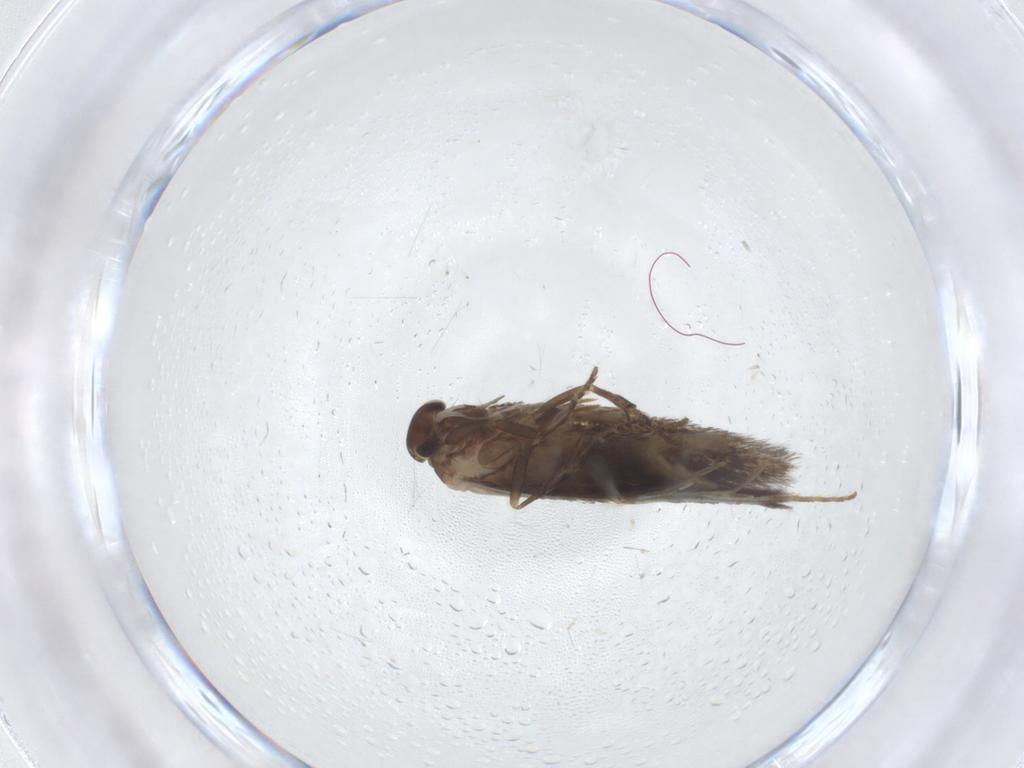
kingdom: Animalia
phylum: Arthropoda
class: Insecta
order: Lepidoptera
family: Elachistidae
